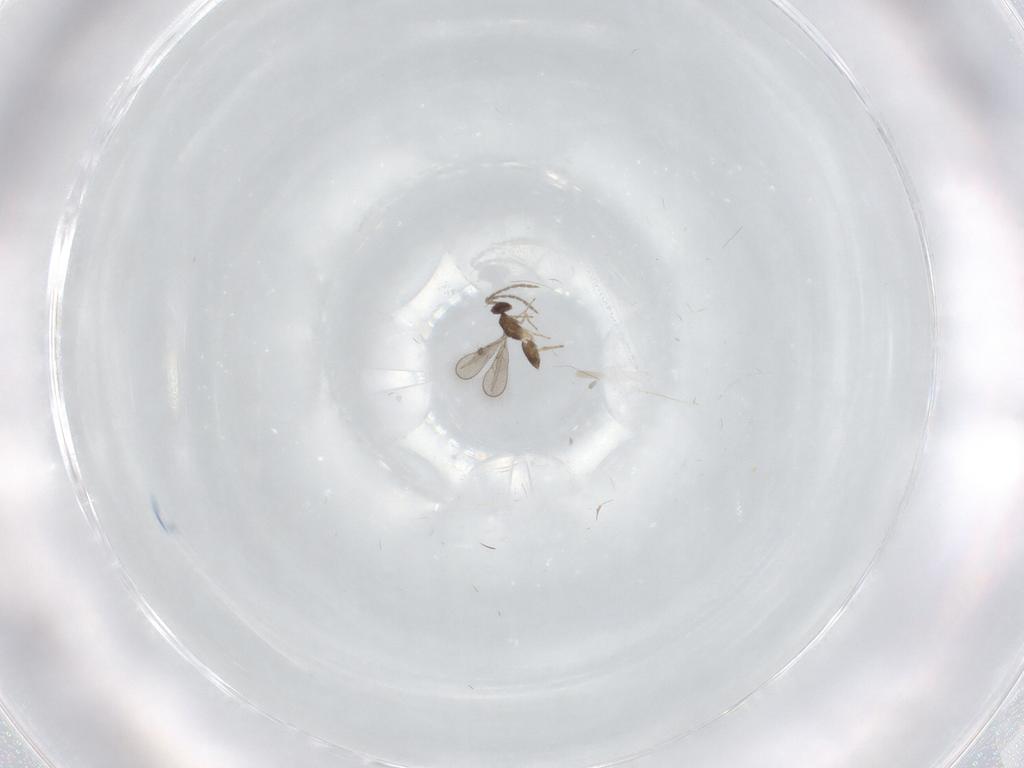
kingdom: Animalia
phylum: Arthropoda
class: Insecta
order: Hymenoptera
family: Eulophidae
